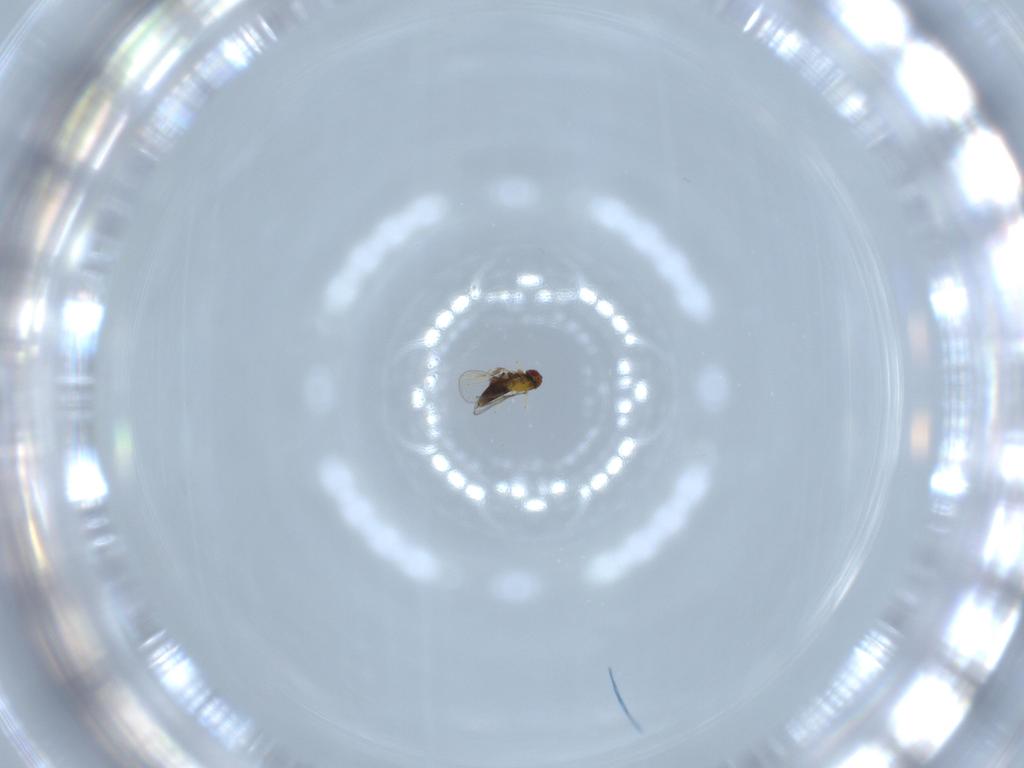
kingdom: Animalia
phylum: Arthropoda
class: Insecta
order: Hymenoptera
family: Trichogrammatidae
